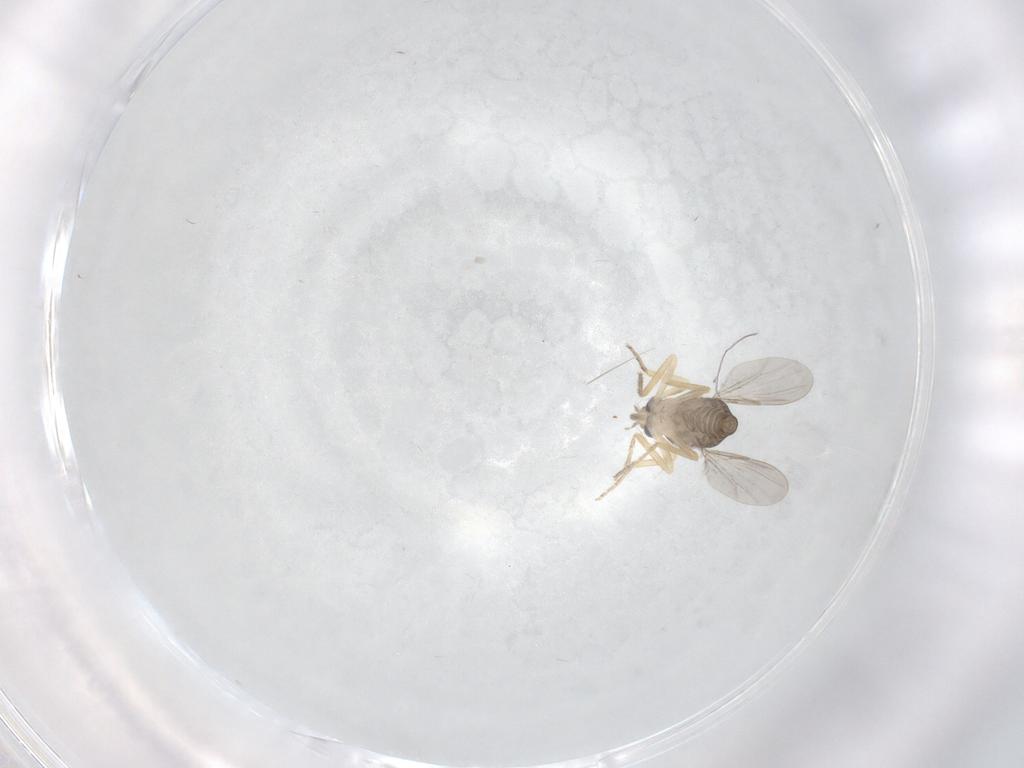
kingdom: Animalia
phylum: Arthropoda
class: Insecta
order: Diptera
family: Ceratopogonidae
